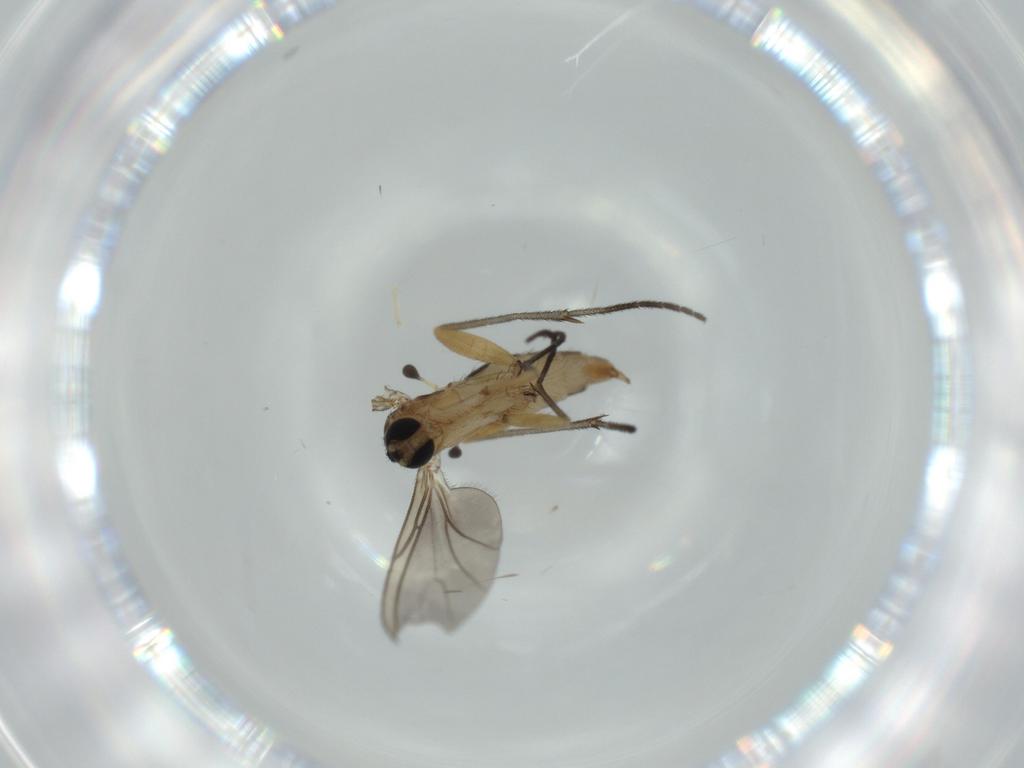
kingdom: Animalia
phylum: Arthropoda
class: Insecta
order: Diptera
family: Sciaridae
